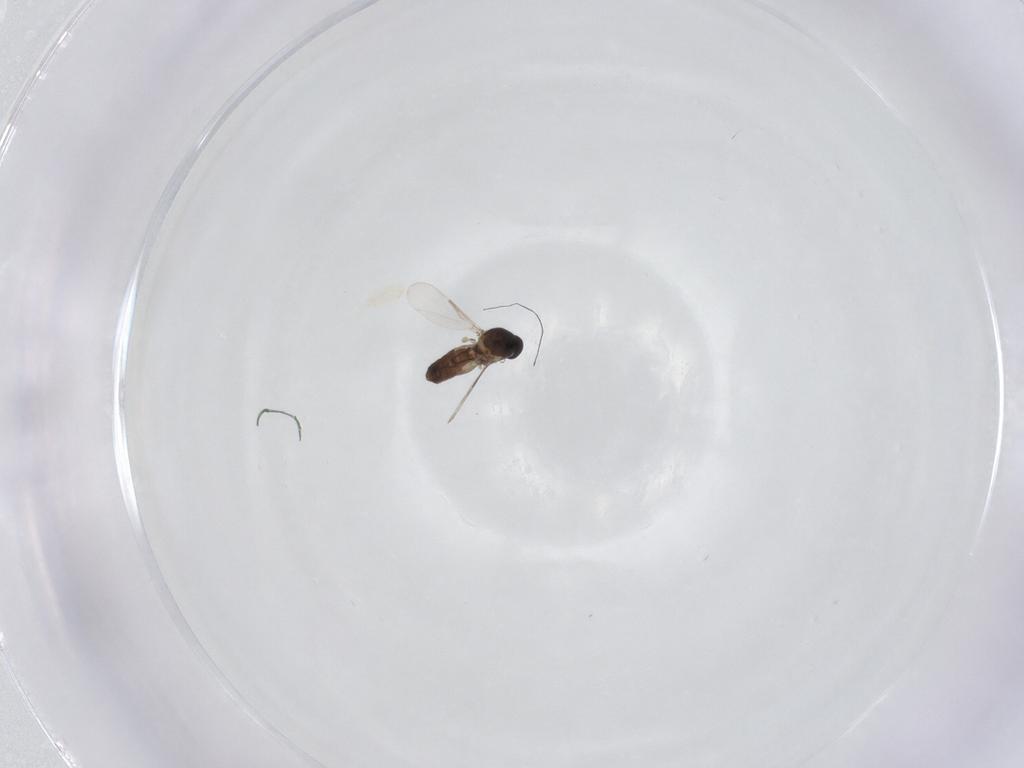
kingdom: Animalia
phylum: Arthropoda
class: Insecta
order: Diptera
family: Ceratopogonidae
